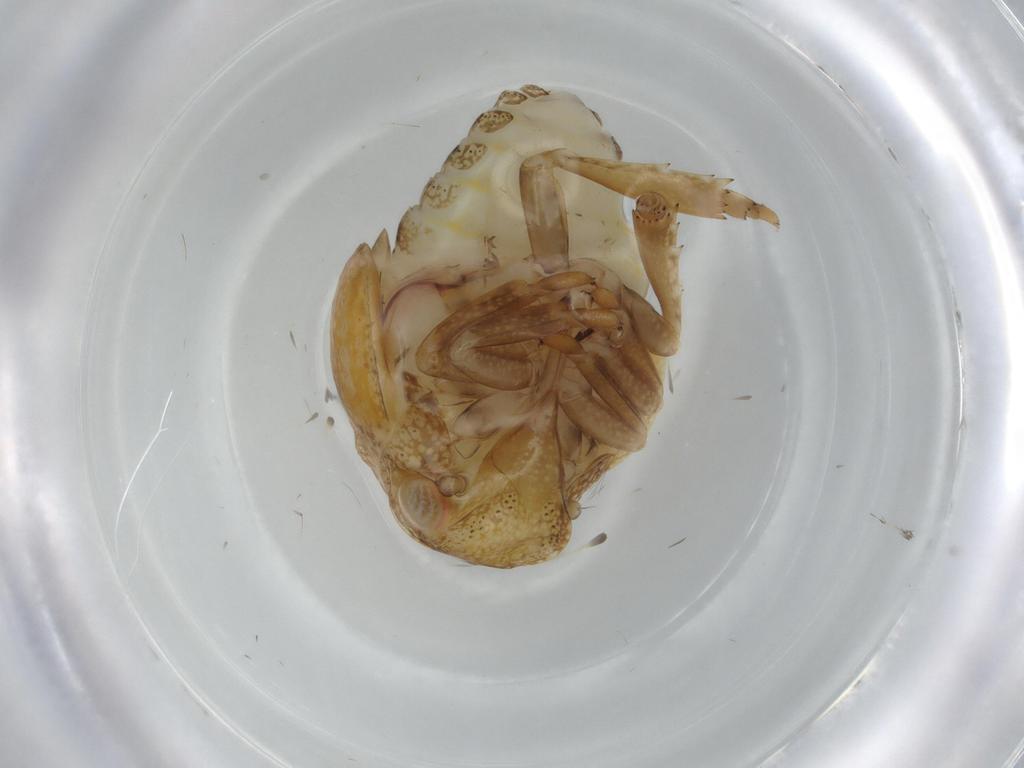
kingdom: Animalia
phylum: Arthropoda
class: Insecta
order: Hemiptera
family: Acanaloniidae
